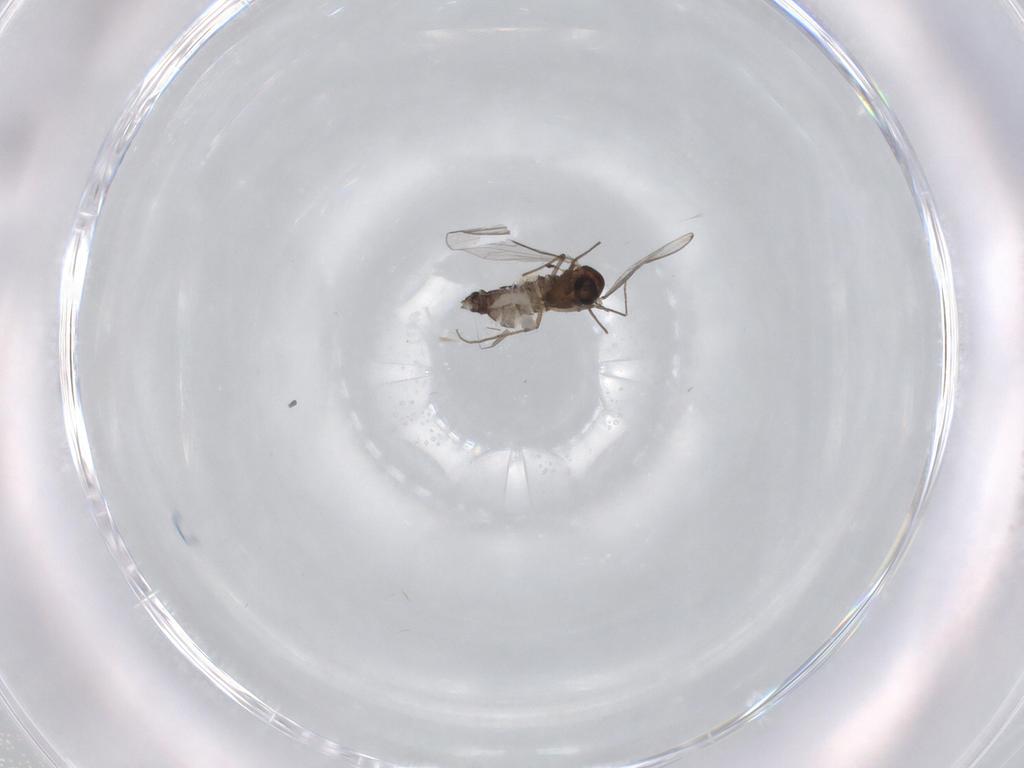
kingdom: Animalia
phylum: Arthropoda
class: Insecta
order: Diptera
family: Chironomidae
